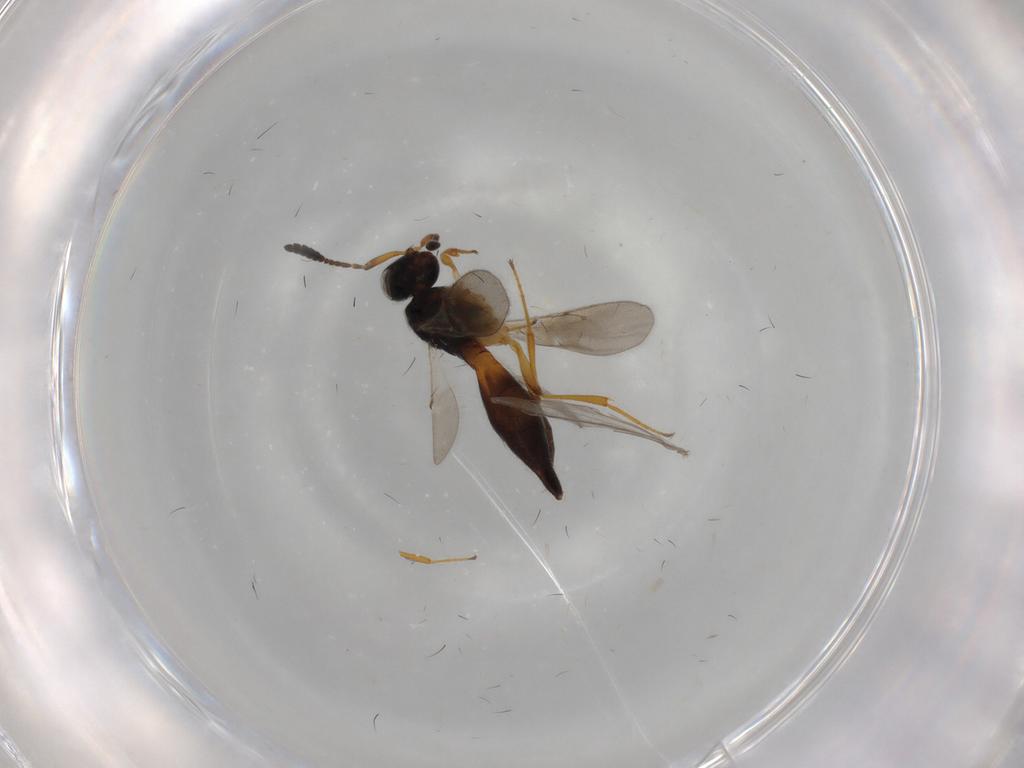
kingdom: Animalia
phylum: Arthropoda
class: Insecta
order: Hymenoptera
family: Scelionidae
